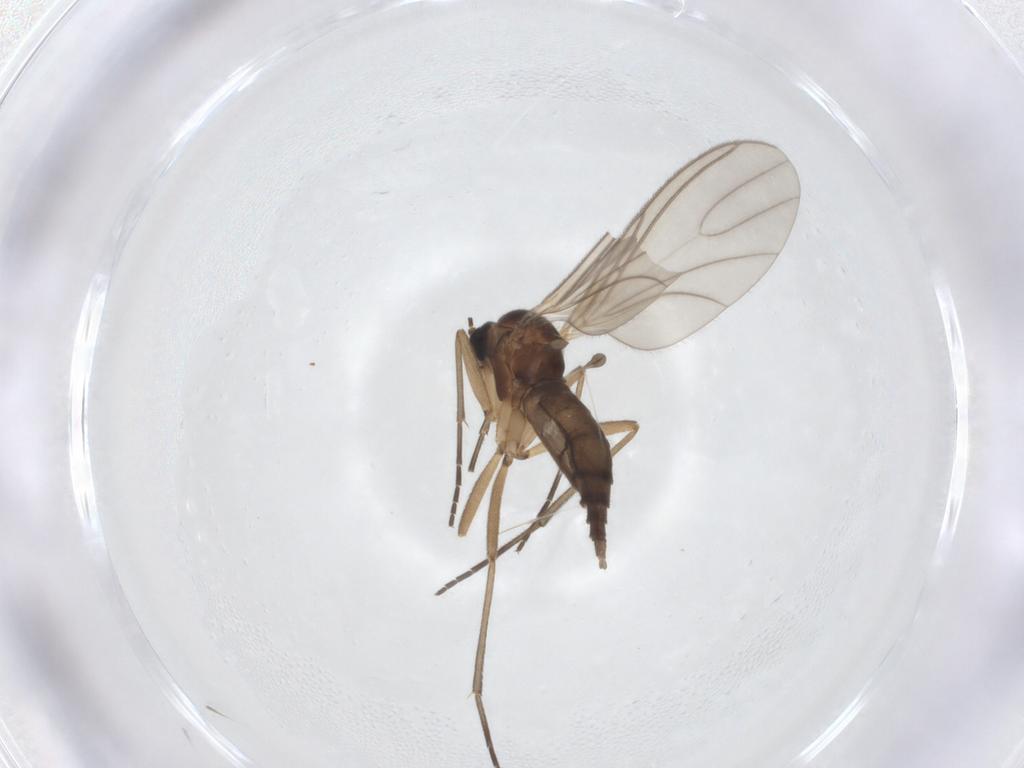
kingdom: Animalia
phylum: Arthropoda
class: Insecta
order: Diptera
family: Sciaridae
